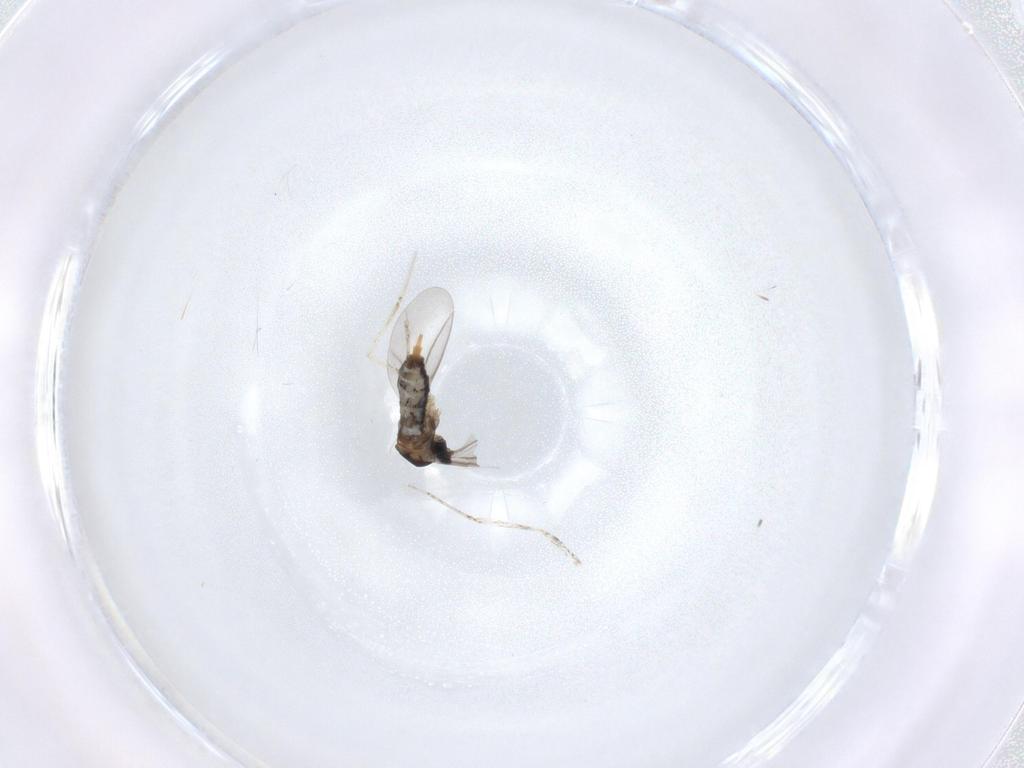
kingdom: Animalia
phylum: Arthropoda
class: Insecta
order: Diptera
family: Cecidomyiidae
